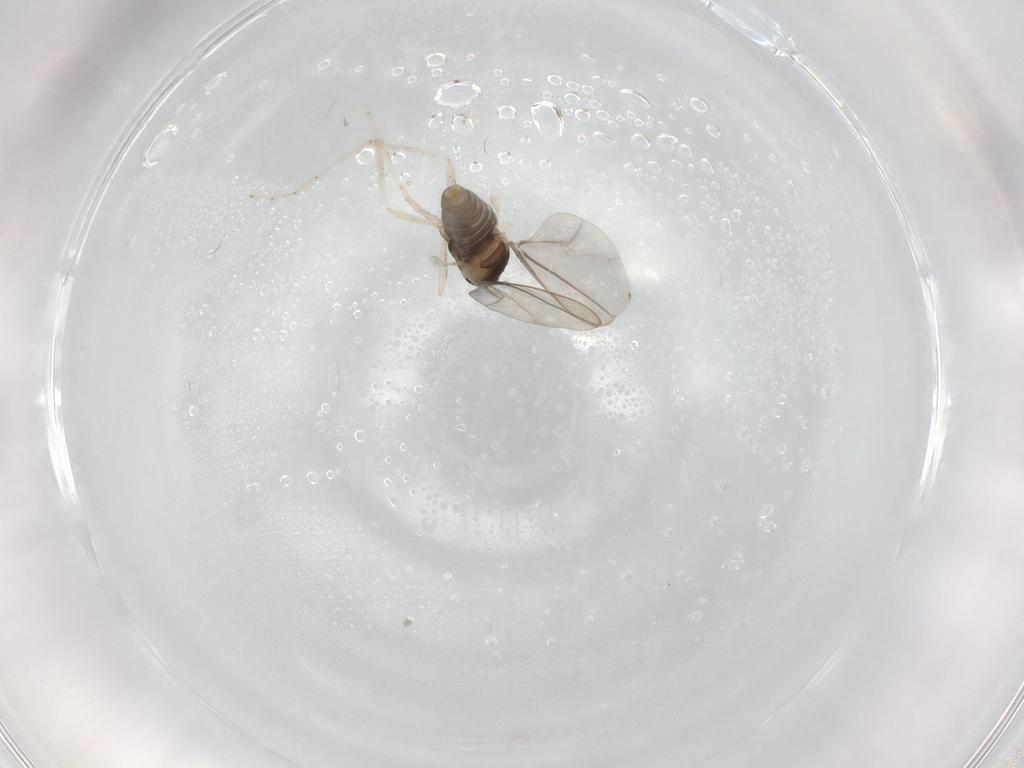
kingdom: Animalia
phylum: Arthropoda
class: Insecta
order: Diptera
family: Cecidomyiidae
